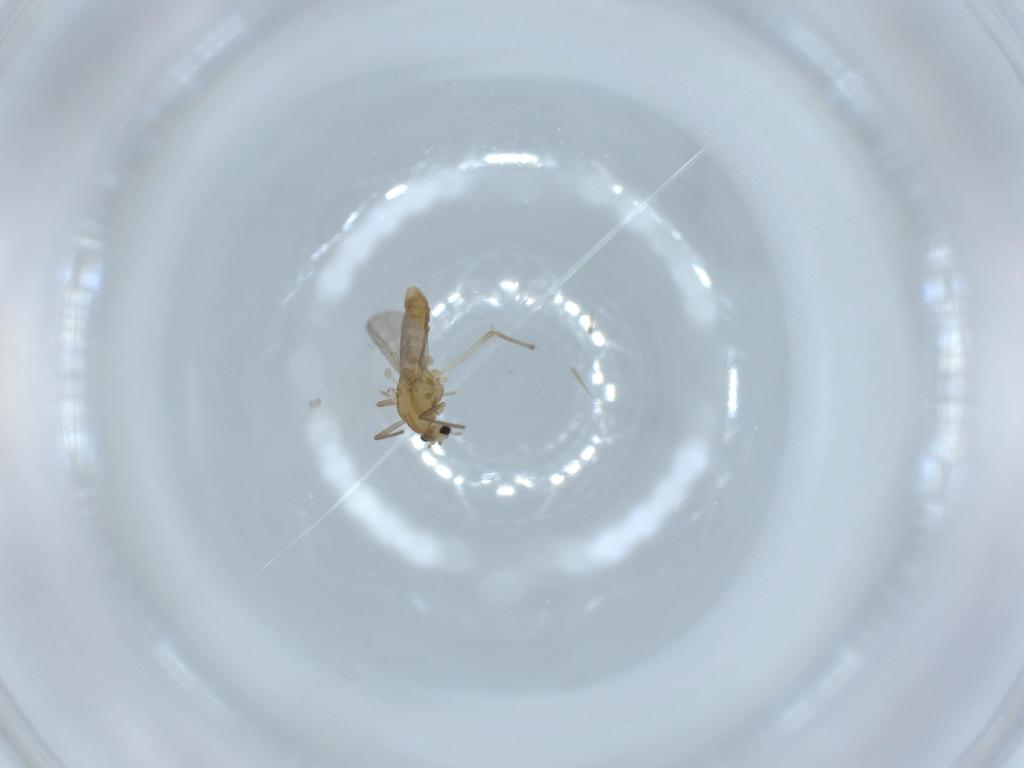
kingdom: Animalia
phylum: Arthropoda
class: Insecta
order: Diptera
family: Chironomidae
